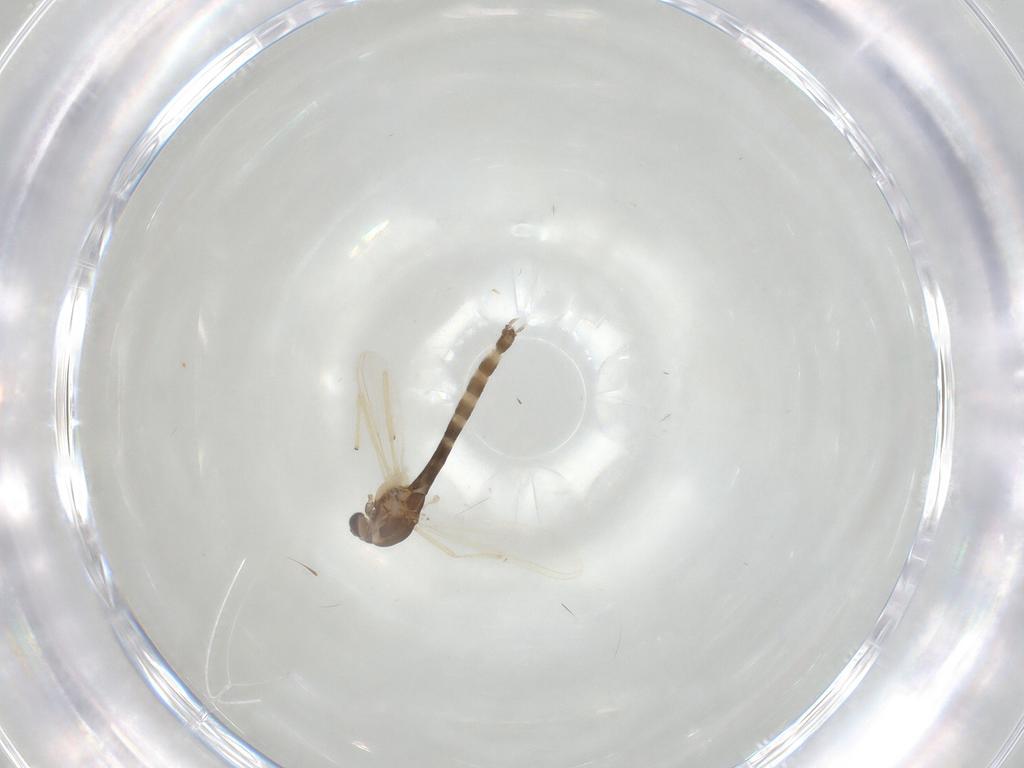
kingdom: Animalia
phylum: Arthropoda
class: Insecta
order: Diptera
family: Chironomidae
